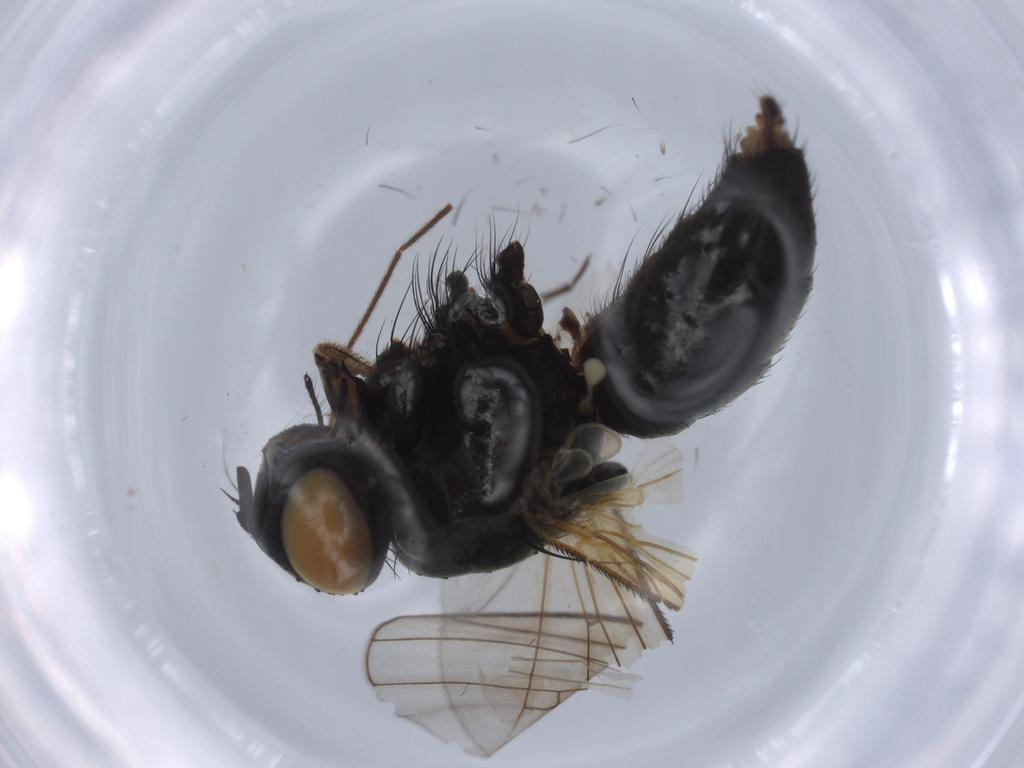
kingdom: Animalia
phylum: Arthropoda
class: Insecta
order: Diptera
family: Muscidae
